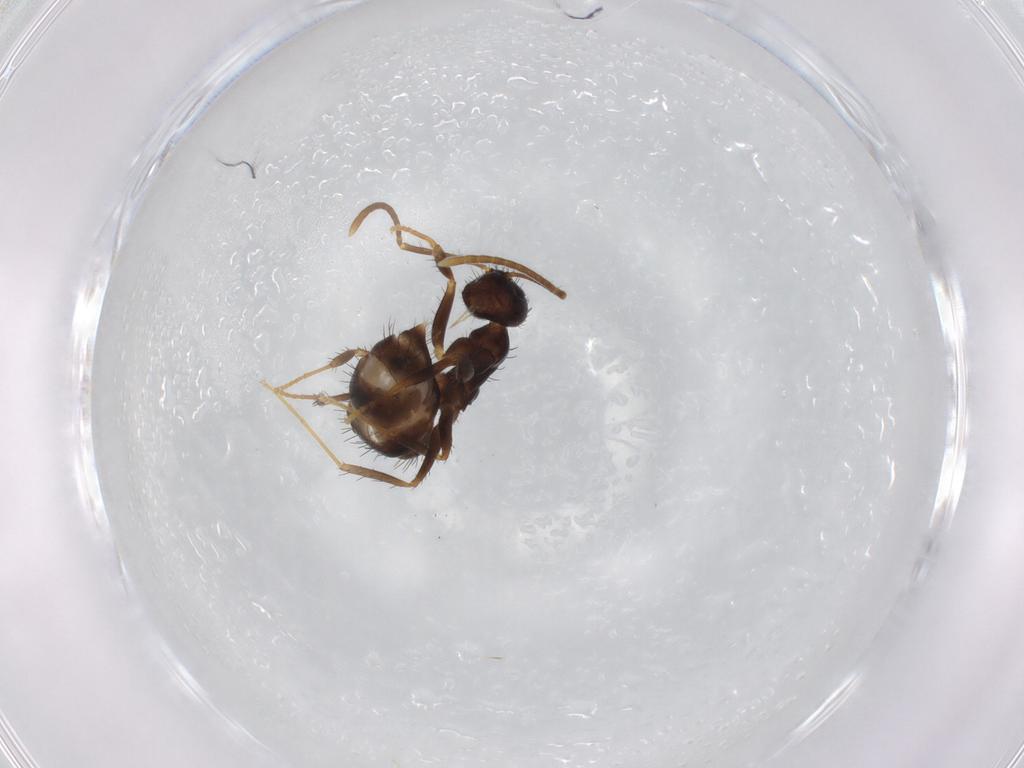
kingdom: Animalia
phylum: Arthropoda
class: Insecta
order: Hymenoptera
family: Formicidae
